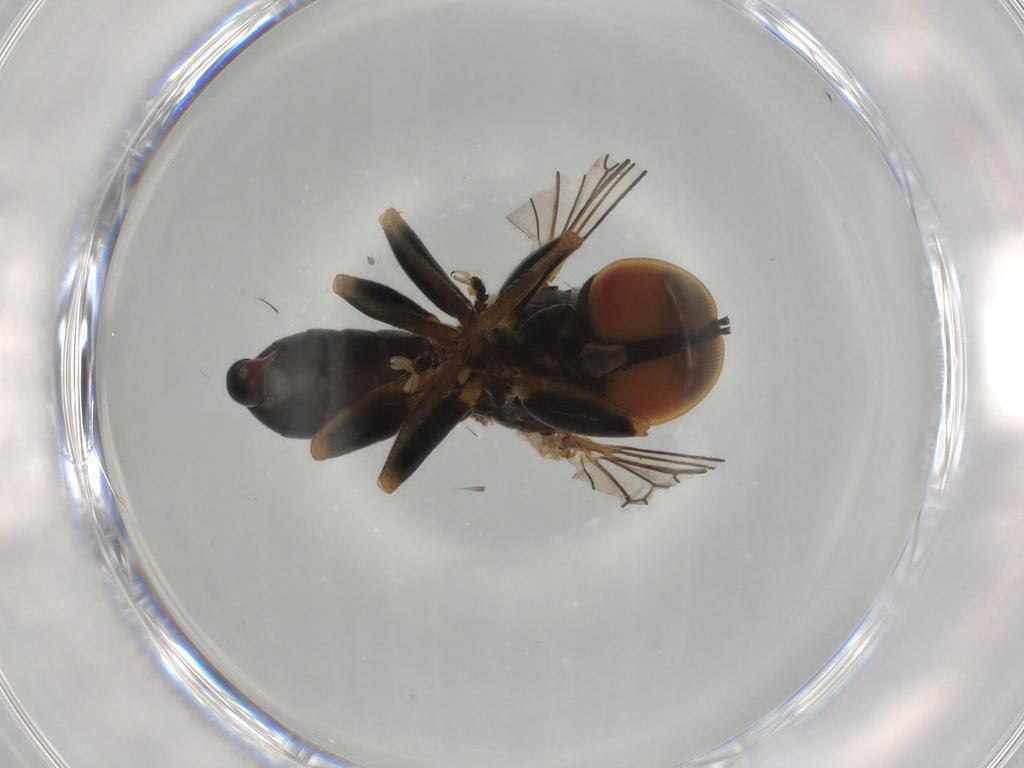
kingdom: Animalia
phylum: Arthropoda
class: Insecta
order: Diptera
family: Pipunculidae
